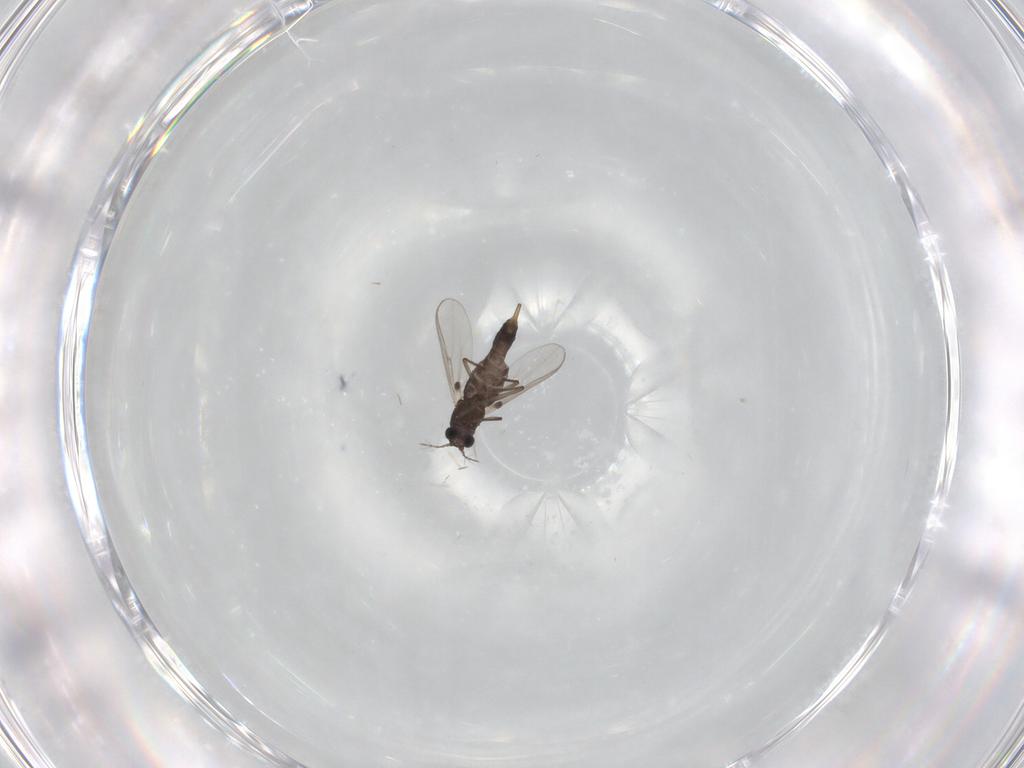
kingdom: Animalia
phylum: Arthropoda
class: Insecta
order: Diptera
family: Chironomidae
